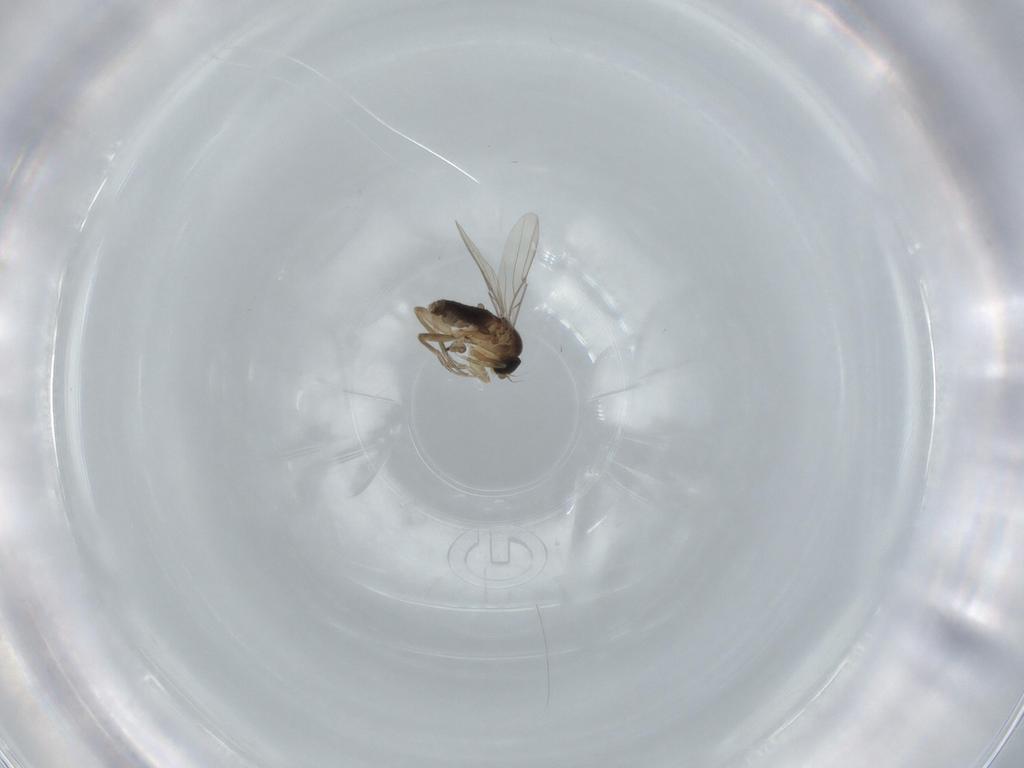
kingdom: Animalia
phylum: Arthropoda
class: Insecta
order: Diptera
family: Phoridae
